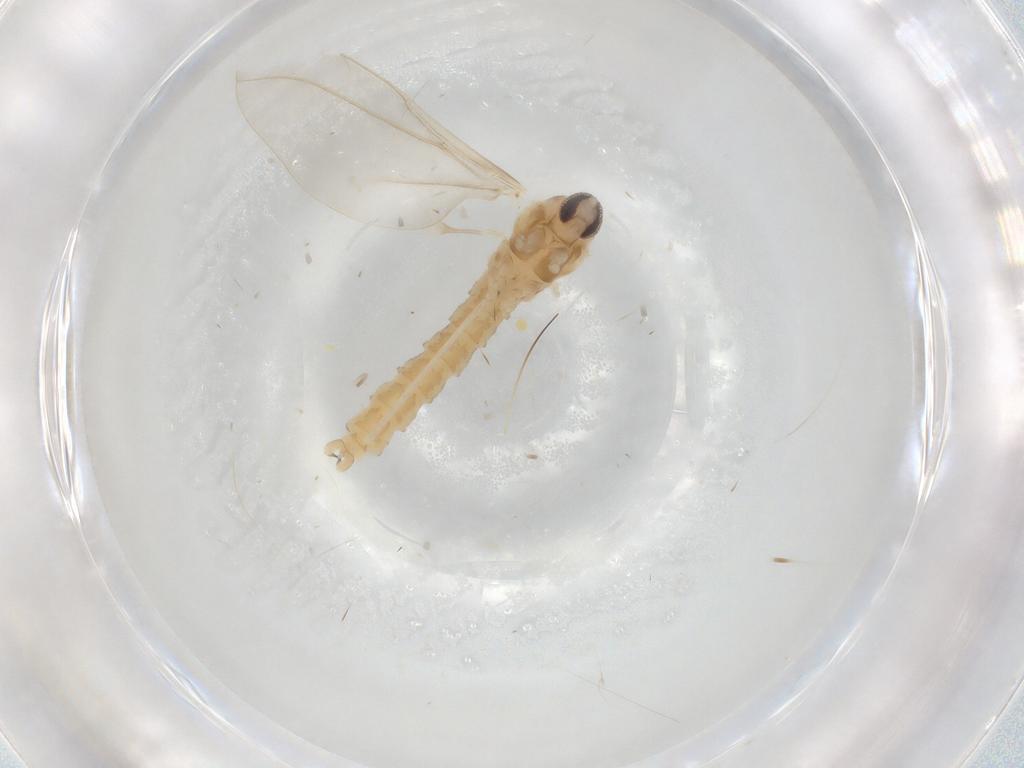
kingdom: Animalia
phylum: Arthropoda
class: Insecta
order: Diptera
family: Cecidomyiidae
